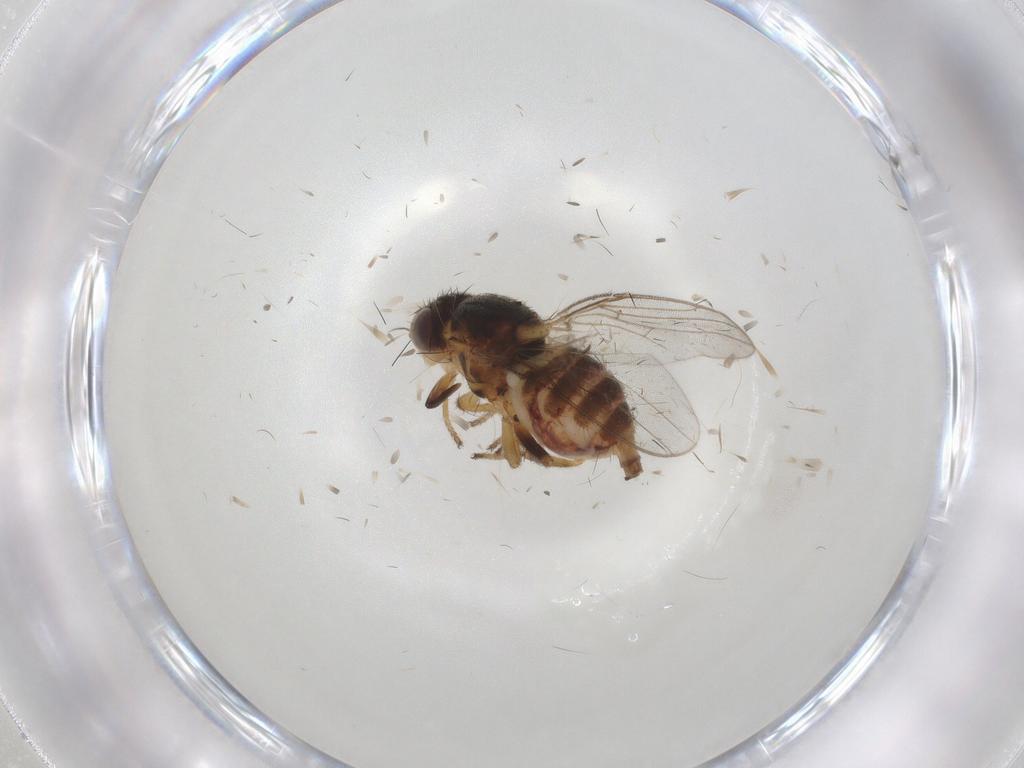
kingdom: Animalia
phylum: Arthropoda
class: Insecta
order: Diptera
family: Chloropidae
